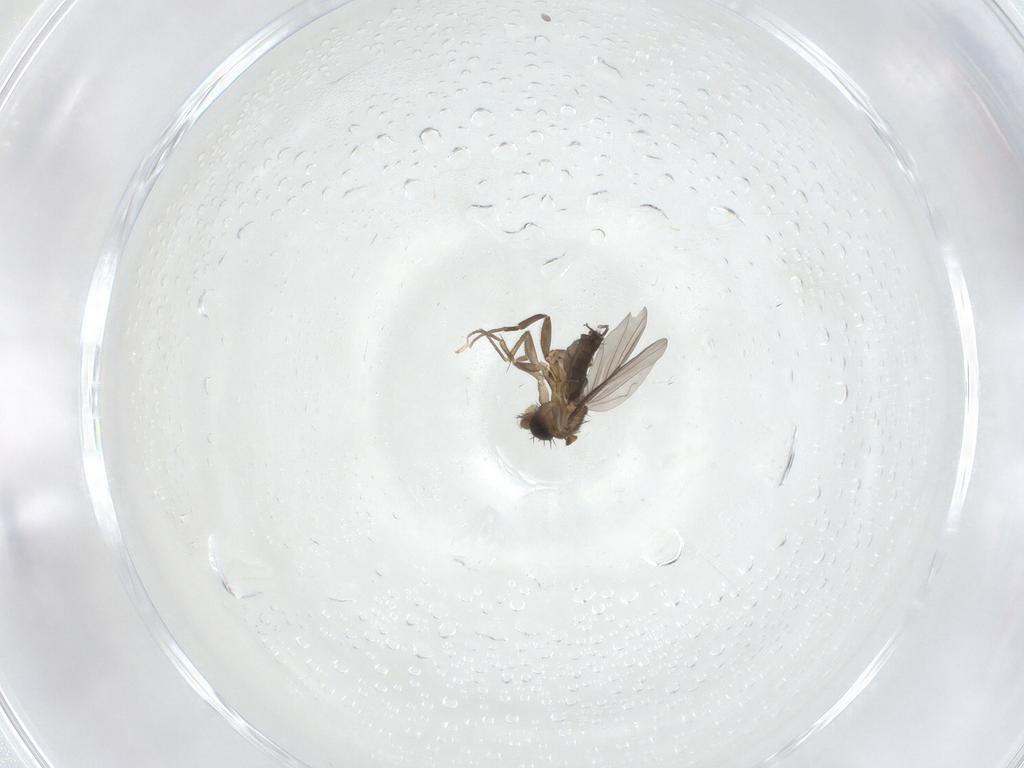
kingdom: Animalia
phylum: Arthropoda
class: Insecta
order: Diptera
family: Phoridae
